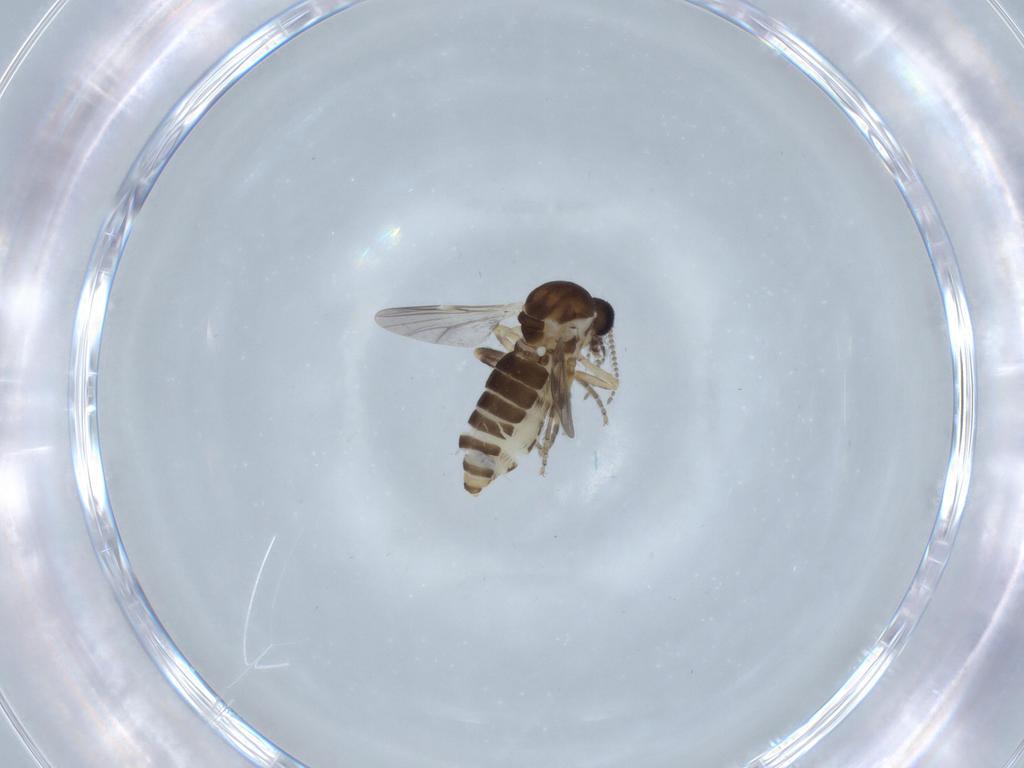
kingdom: Animalia
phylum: Arthropoda
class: Insecta
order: Diptera
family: Ceratopogonidae
